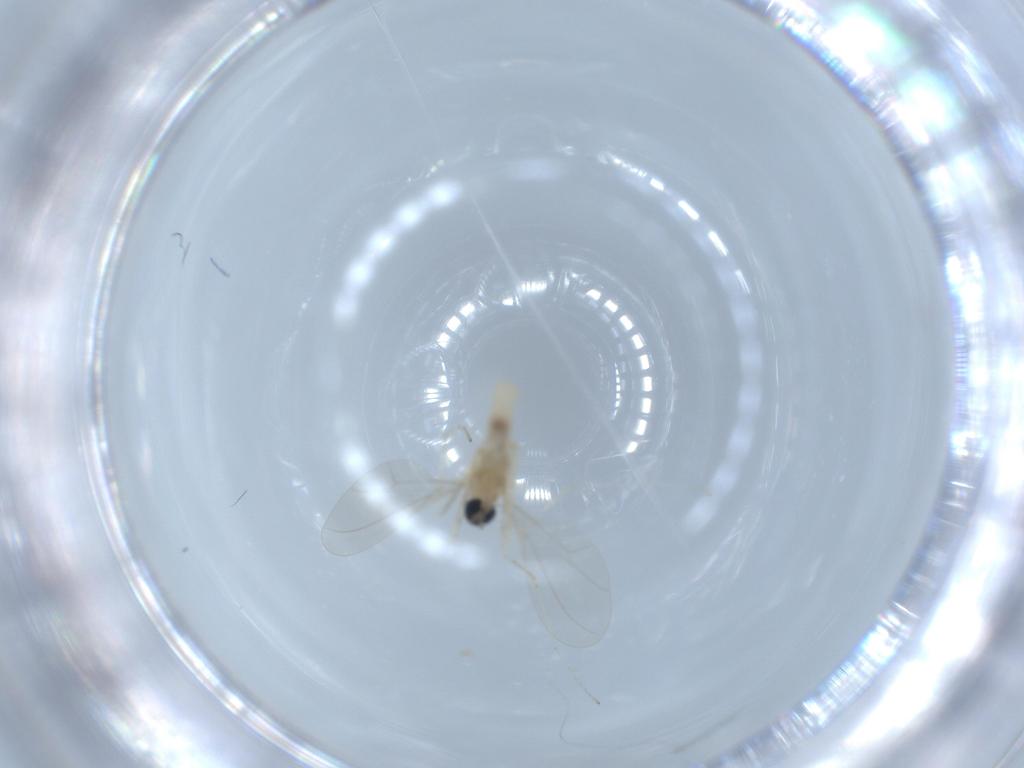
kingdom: Animalia
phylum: Arthropoda
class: Insecta
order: Diptera
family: Cecidomyiidae
